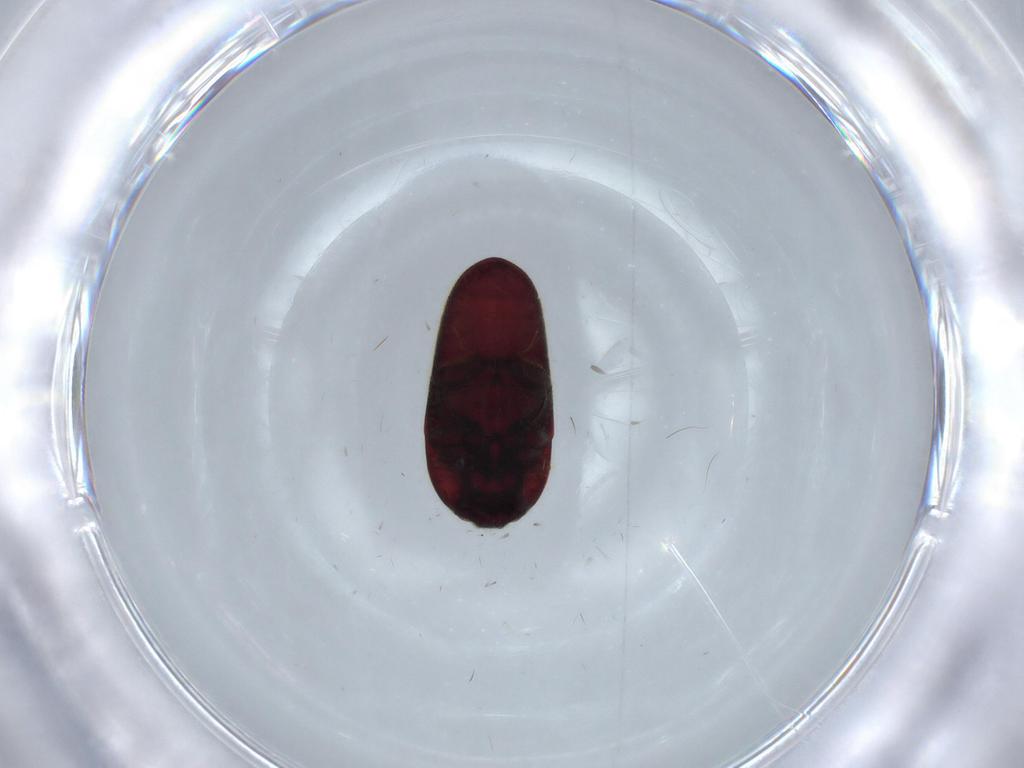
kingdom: Animalia
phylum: Arthropoda
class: Insecta
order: Coleoptera
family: Throscidae
